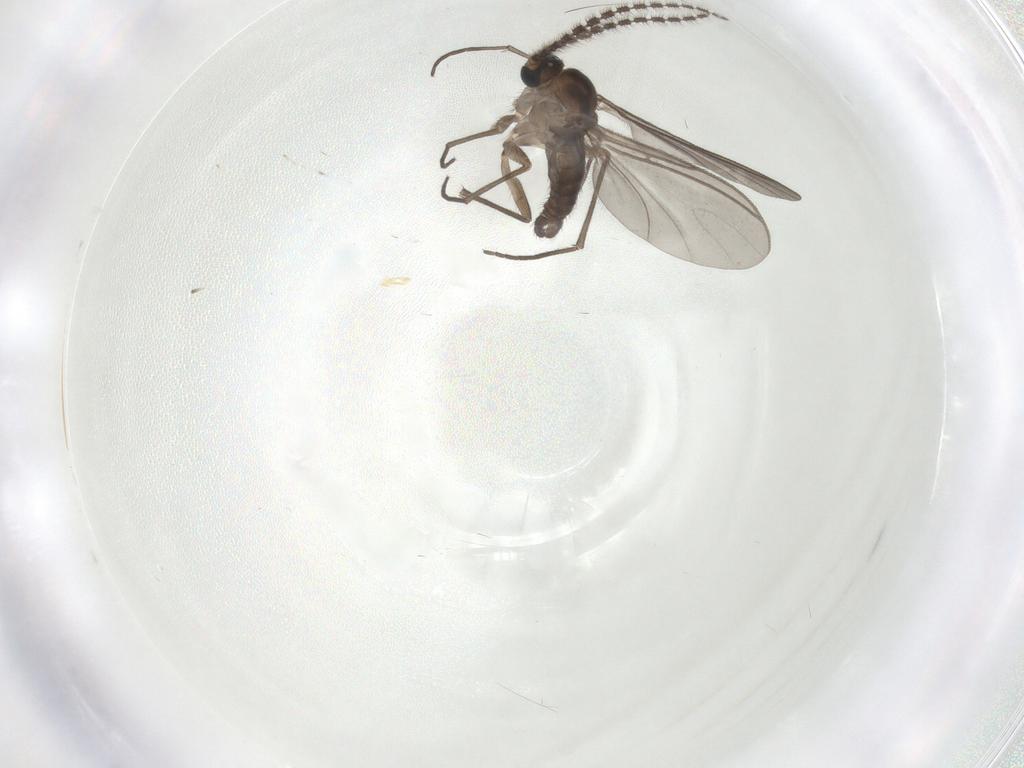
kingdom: Animalia
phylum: Arthropoda
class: Insecta
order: Diptera
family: Sciaridae
